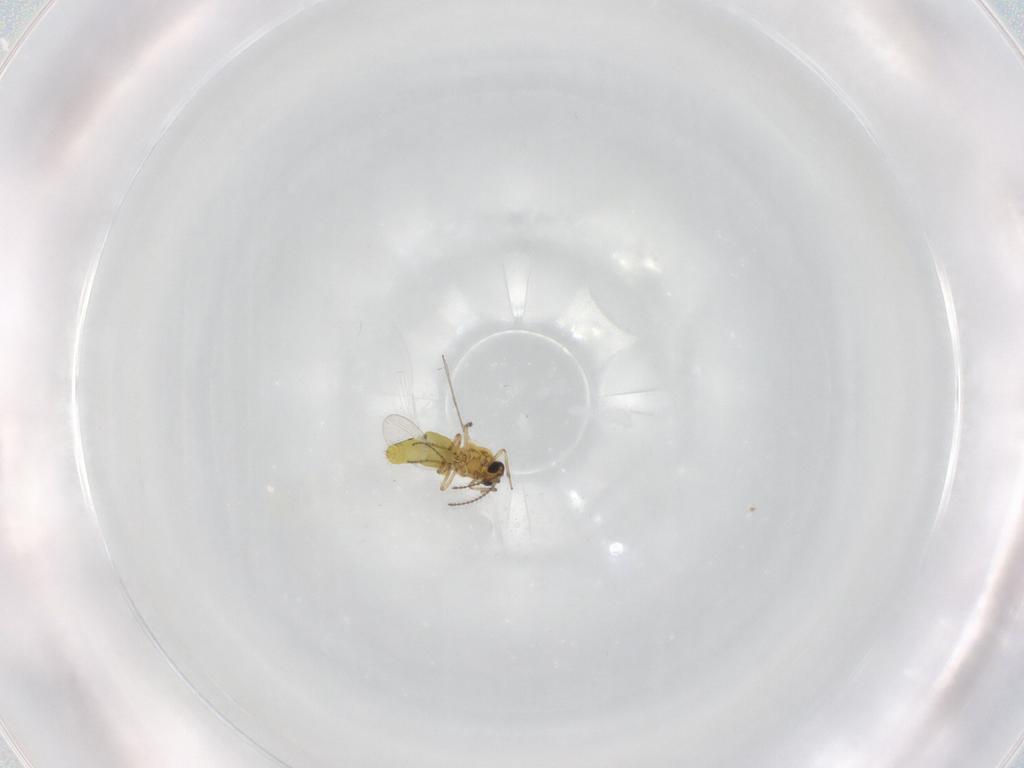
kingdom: Animalia
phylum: Arthropoda
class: Insecta
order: Diptera
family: Ceratopogonidae
